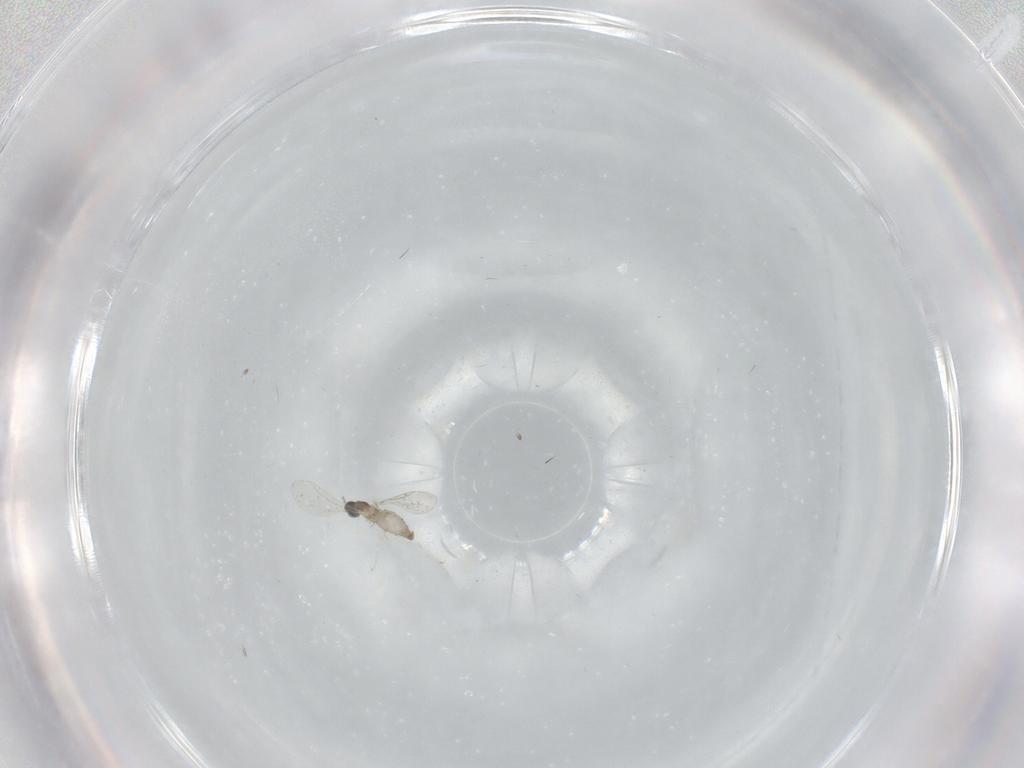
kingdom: Animalia
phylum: Arthropoda
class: Insecta
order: Diptera
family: Cecidomyiidae
